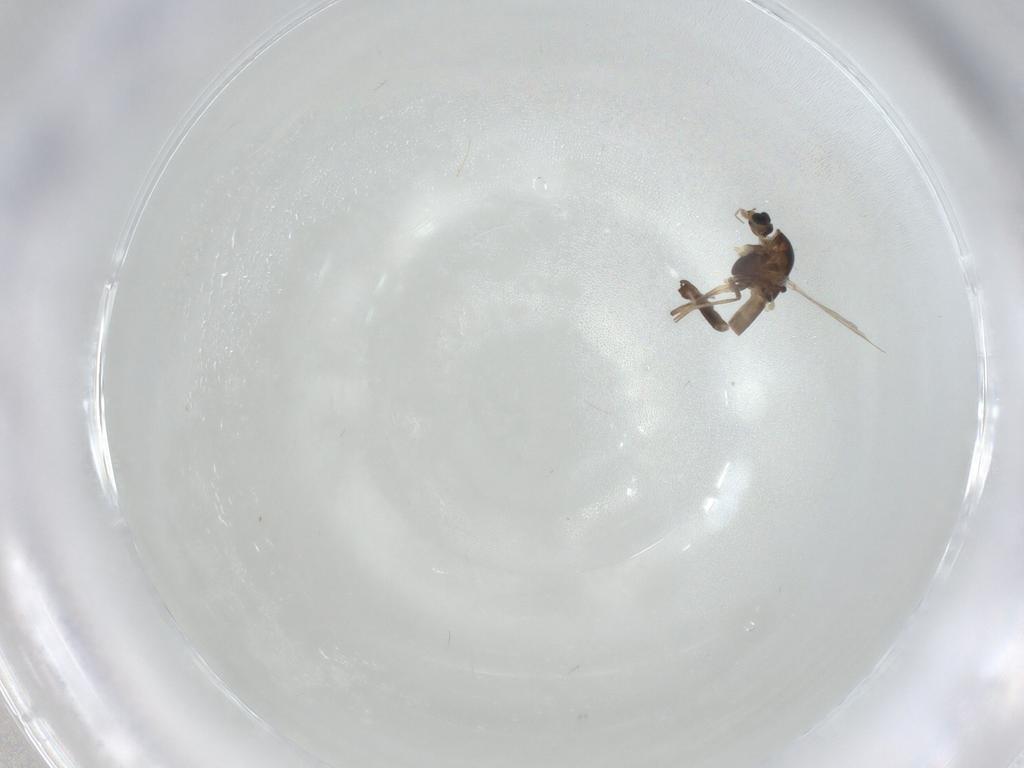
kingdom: Animalia
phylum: Arthropoda
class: Insecta
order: Diptera
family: Chironomidae
